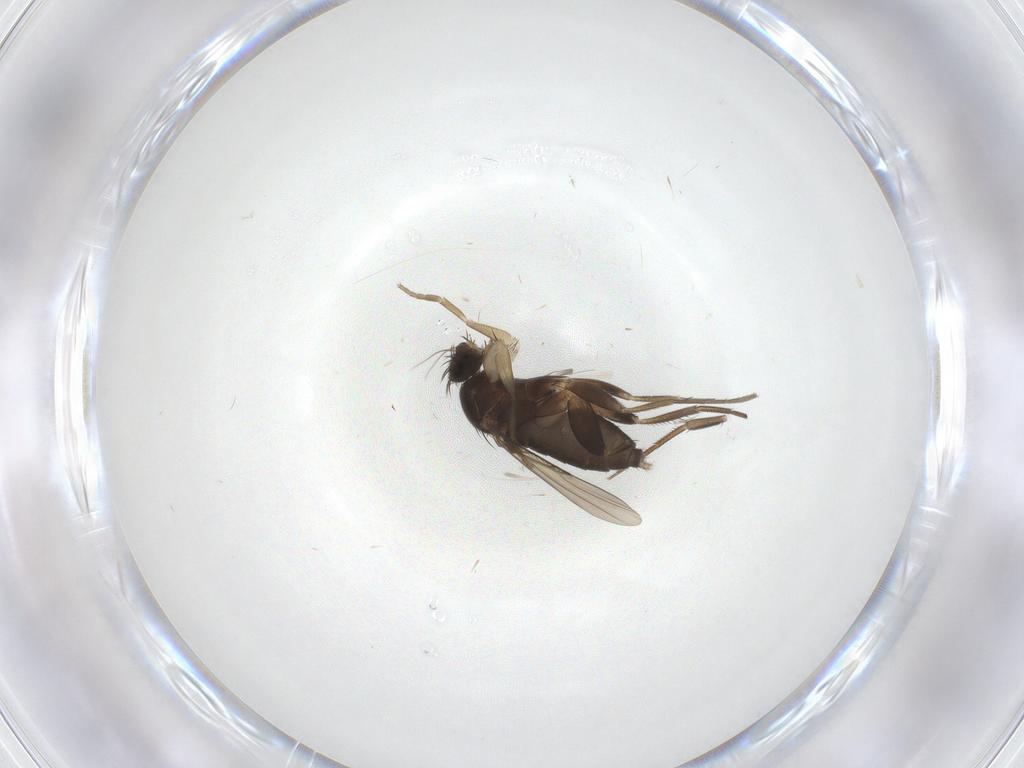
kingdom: Animalia
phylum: Arthropoda
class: Insecta
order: Diptera
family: Phoridae
